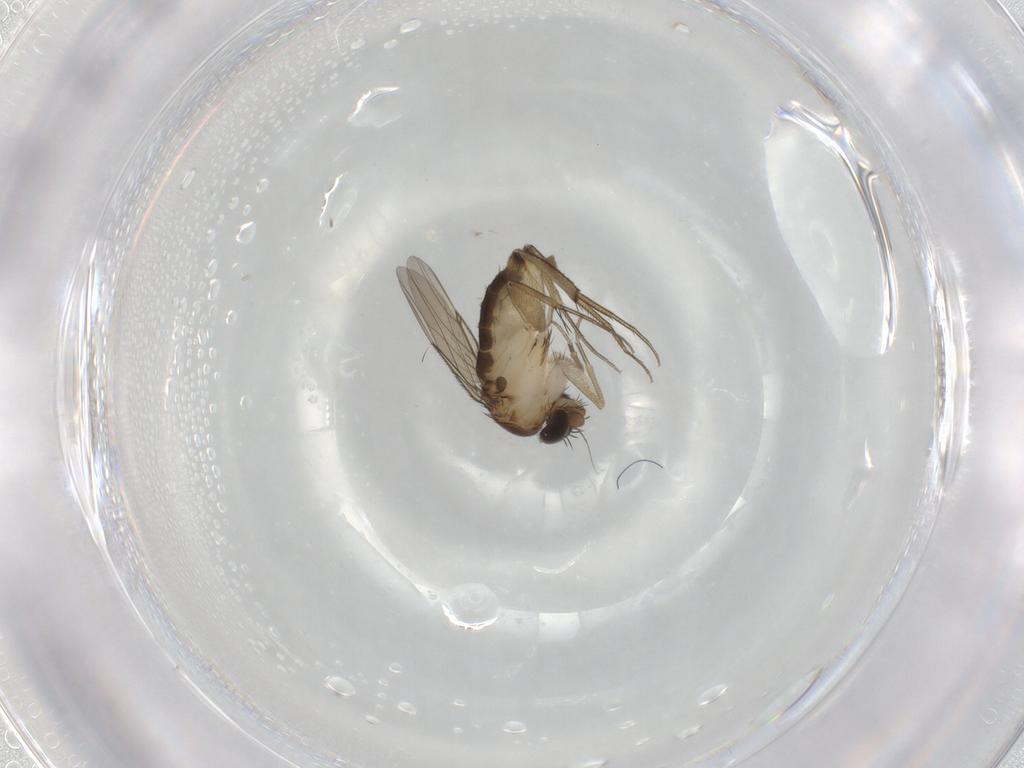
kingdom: Animalia
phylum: Arthropoda
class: Insecta
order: Diptera
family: Phoridae
